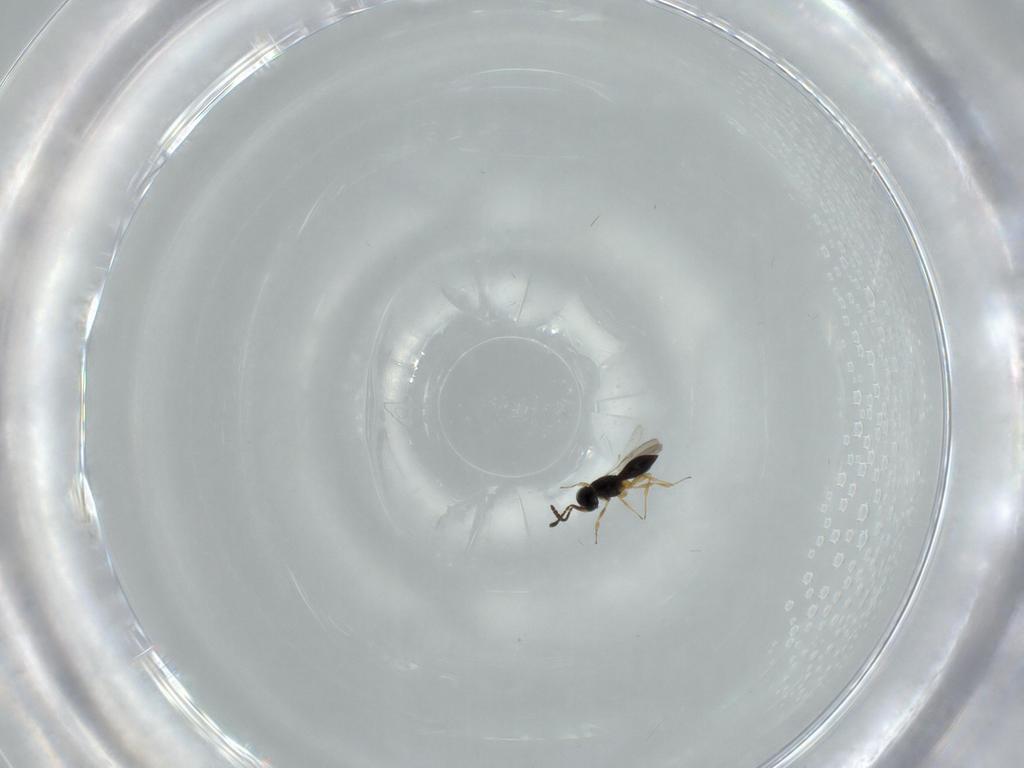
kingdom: Animalia
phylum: Arthropoda
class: Insecta
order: Hymenoptera
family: Scelionidae
